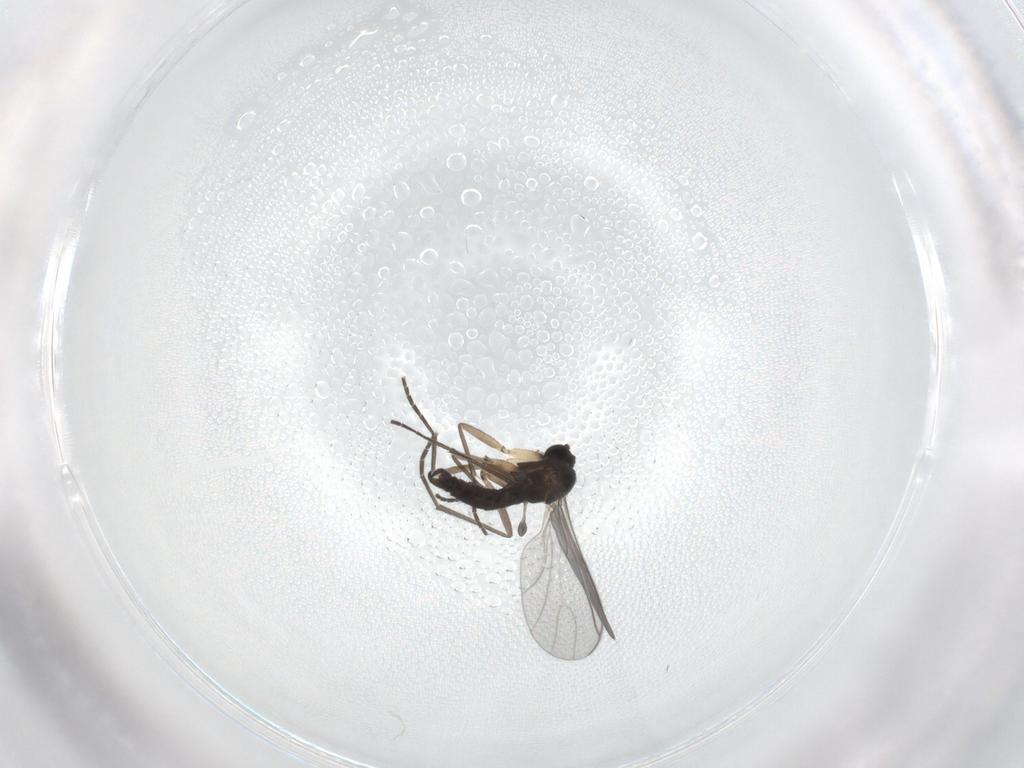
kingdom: Animalia
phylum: Arthropoda
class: Insecta
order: Diptera
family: Sciaridae
